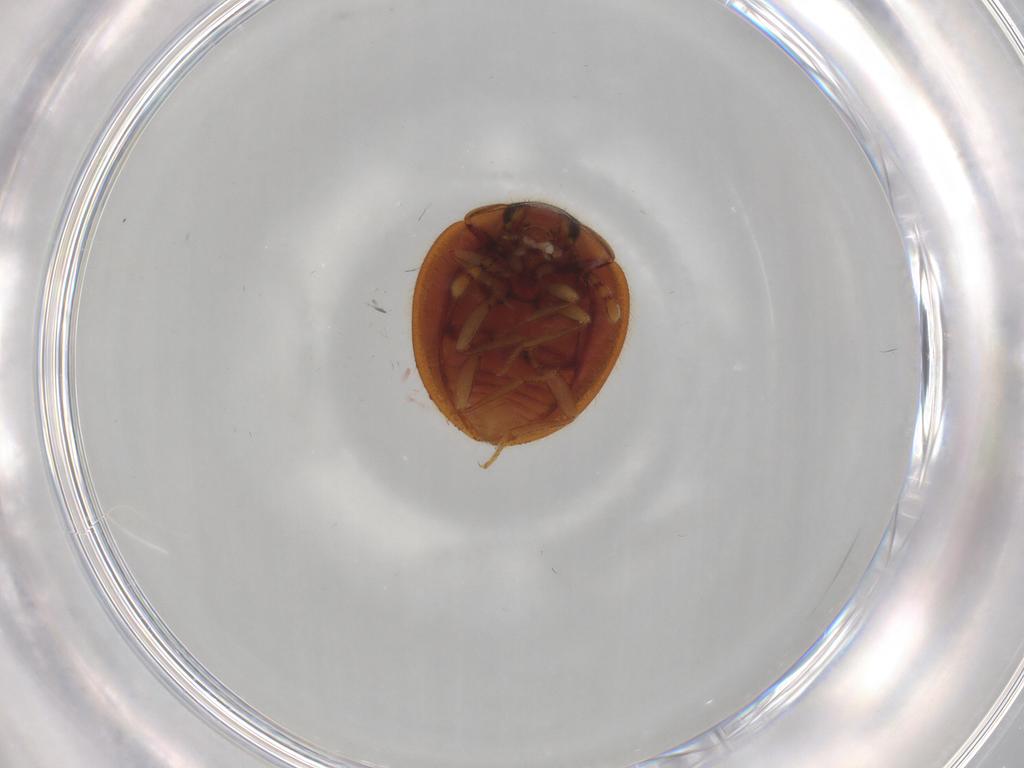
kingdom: Animalia
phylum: Arthropoda
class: Insecta
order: Coleoptera
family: Anamorphidae
